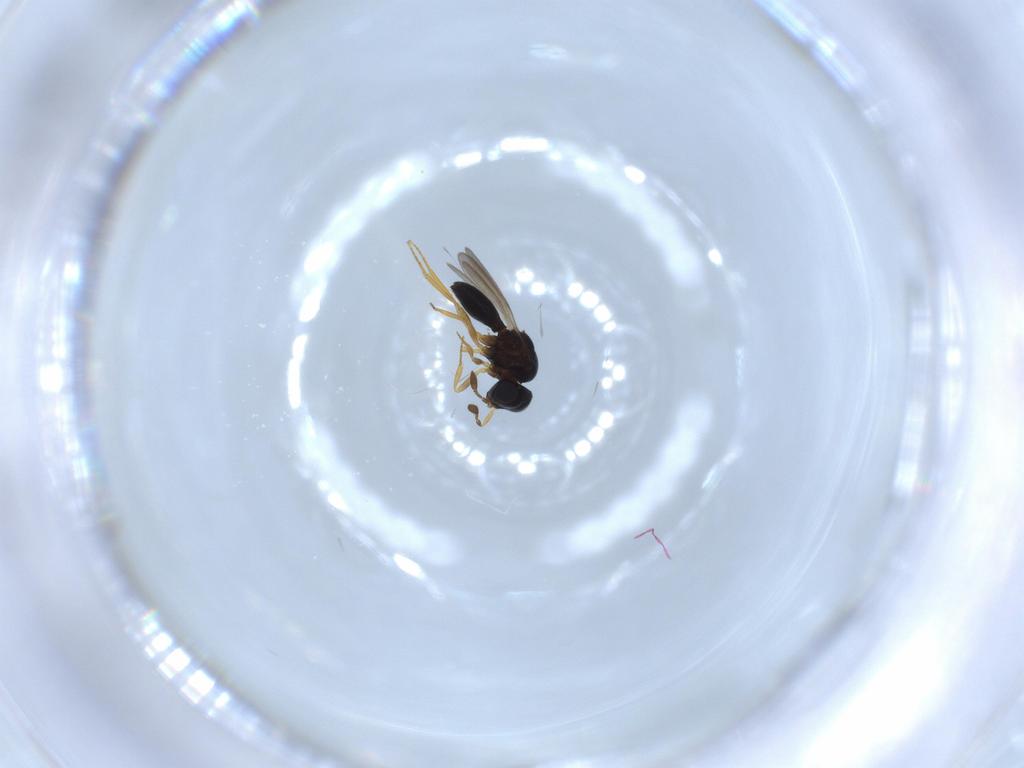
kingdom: Animalia
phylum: Arthropoda
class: Insecta
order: Hymenoptera
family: Scelionidae
